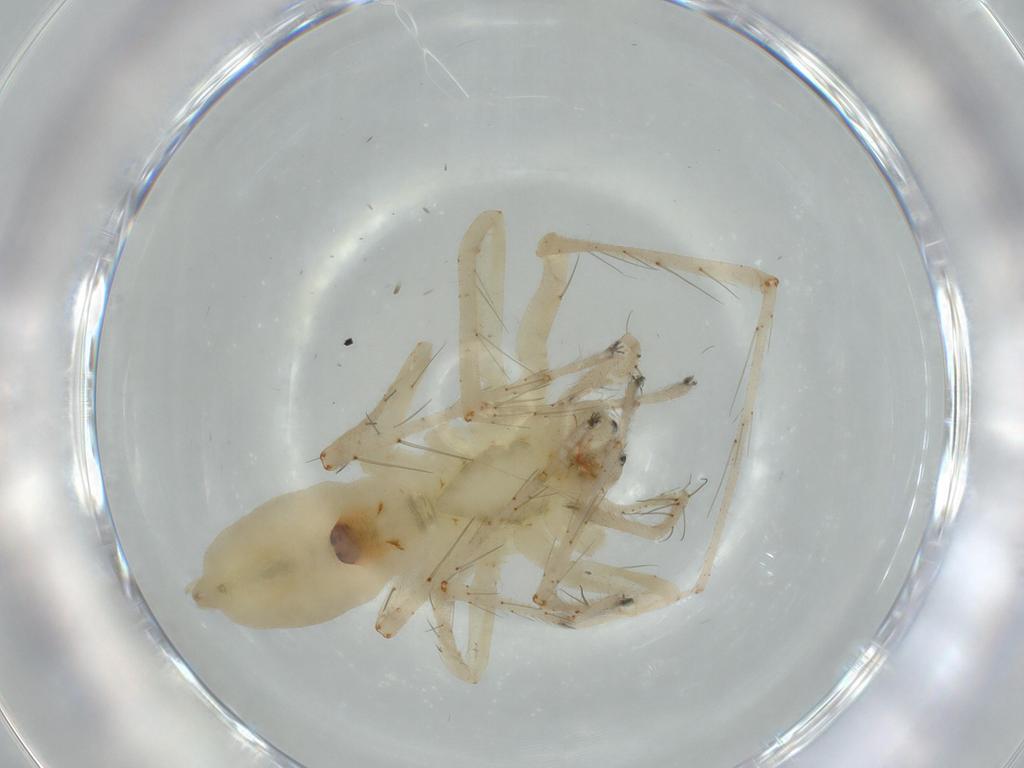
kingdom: Animalia
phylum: Arthropoda
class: Arachnida
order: Araneae
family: Anyphaenidae
